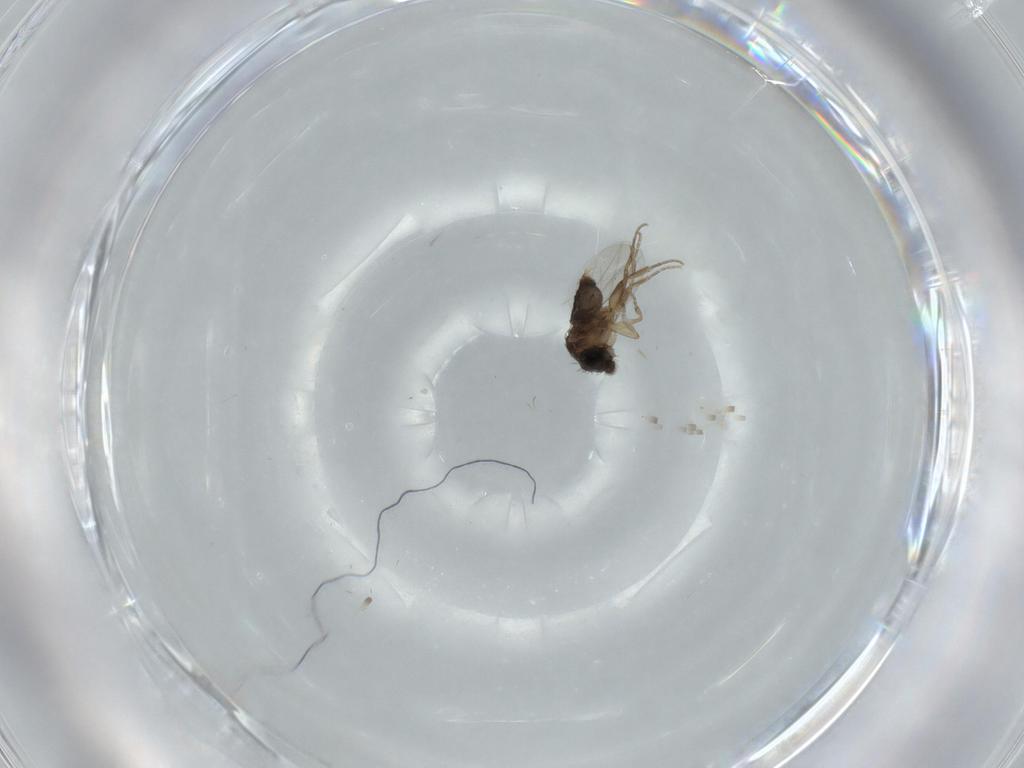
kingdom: Animalia
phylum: Arthropoda
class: Insecta
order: Diptera
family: Phoridae
